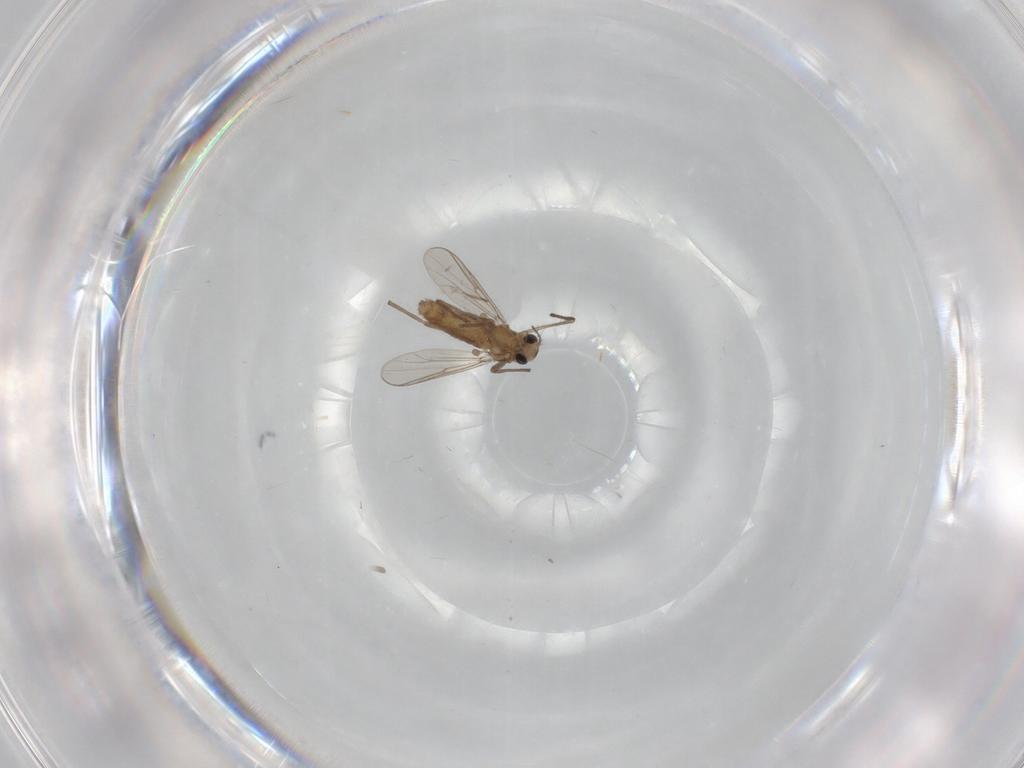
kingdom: Animalia
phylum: Arthropoda
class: Insecta
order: Diptera
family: Chironomidae
